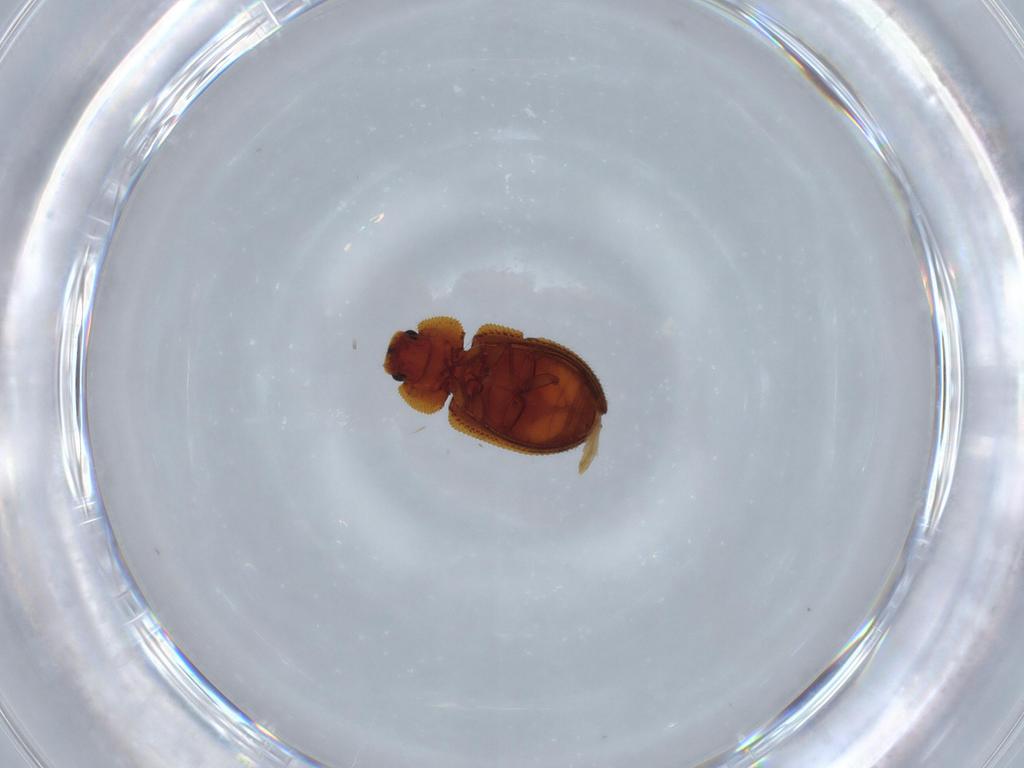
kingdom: Animalia
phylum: Arthropoda
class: Insecta
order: Coleoptera
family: Zopheridae
